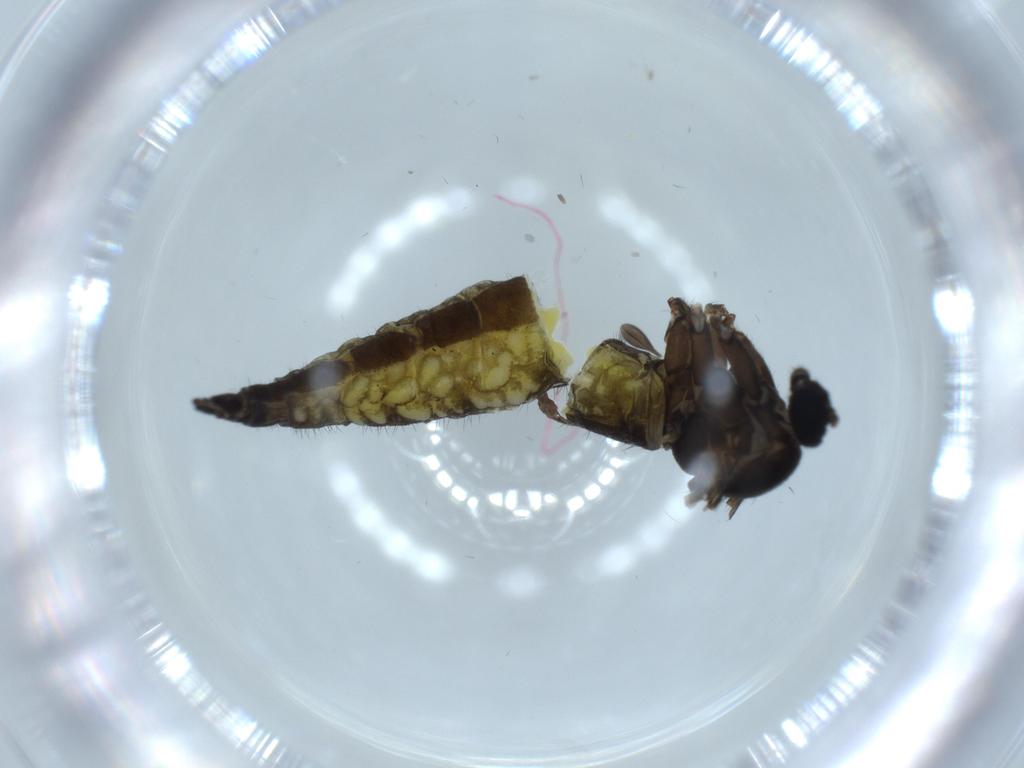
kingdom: Animalia
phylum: Arthropoda
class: Insecta
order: Diptera
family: Sciaridae
